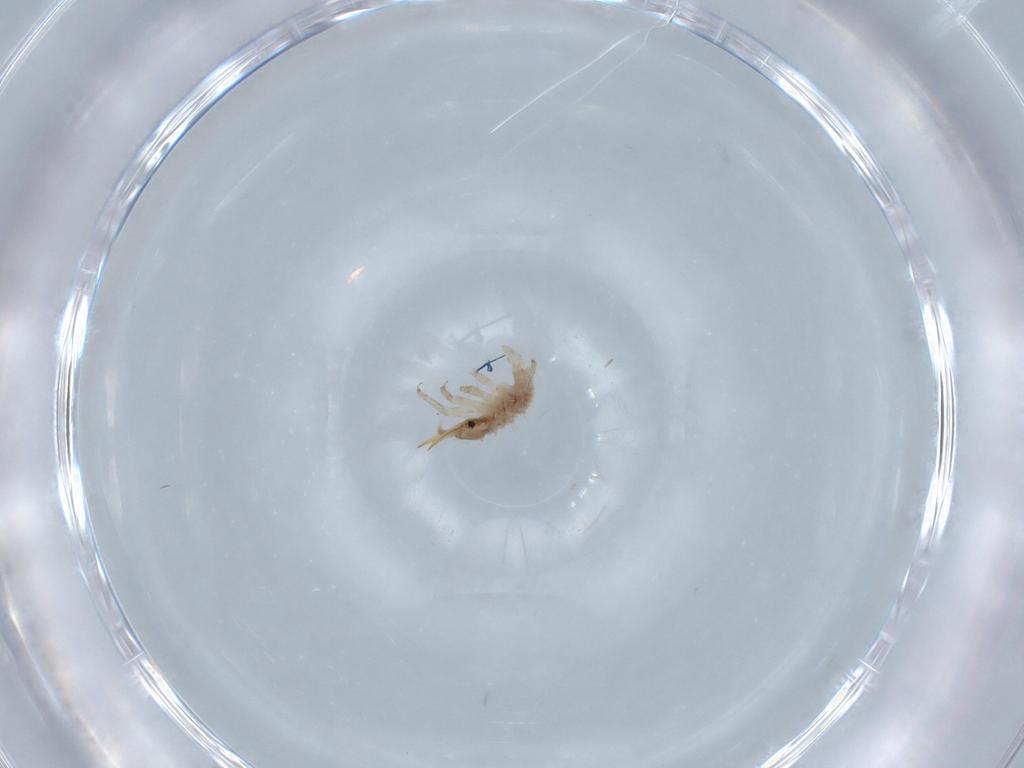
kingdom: Animalia
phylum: Arthropoda
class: Insecta
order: Neuroptera
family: Chrysopidae
